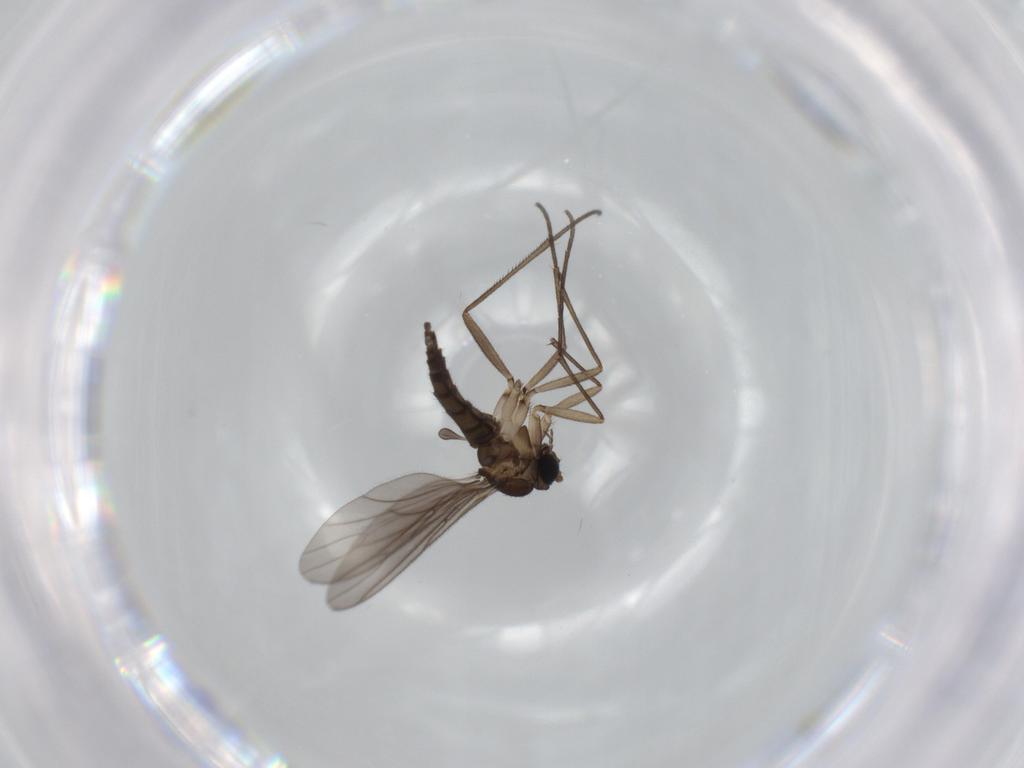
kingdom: Animalia
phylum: Arthropoda
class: Insecta
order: Diptera
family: Sciaridae
